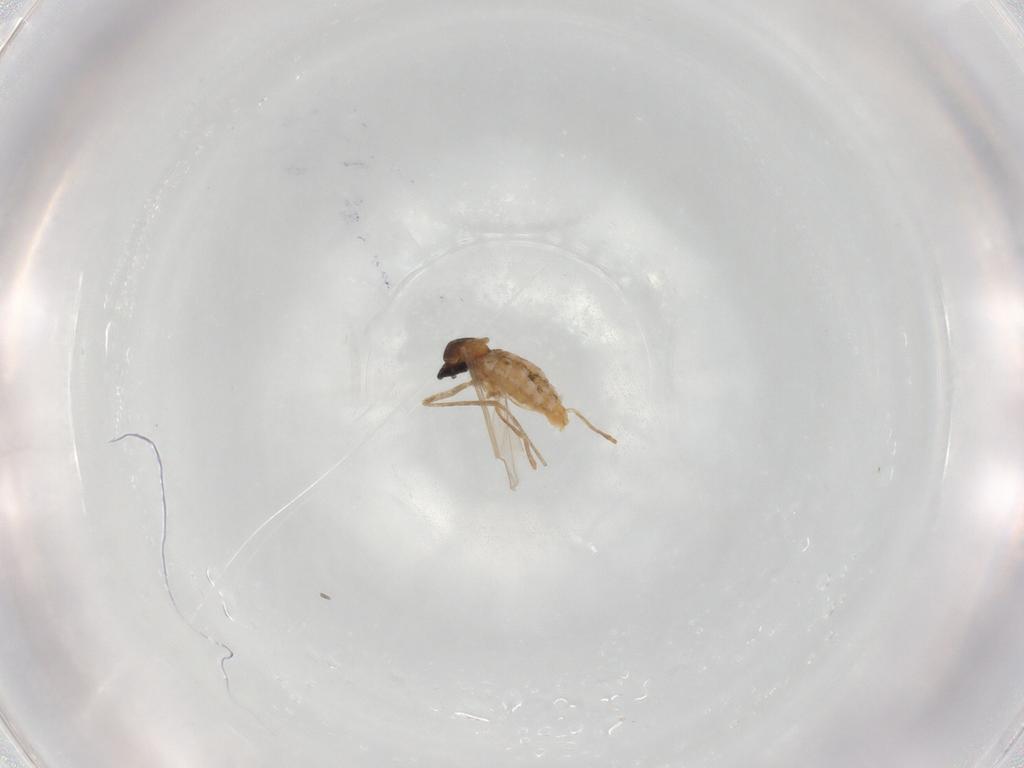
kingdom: Animalia
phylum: Arthropoda
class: Insecta
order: Diptera
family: Cecidomyiidae
